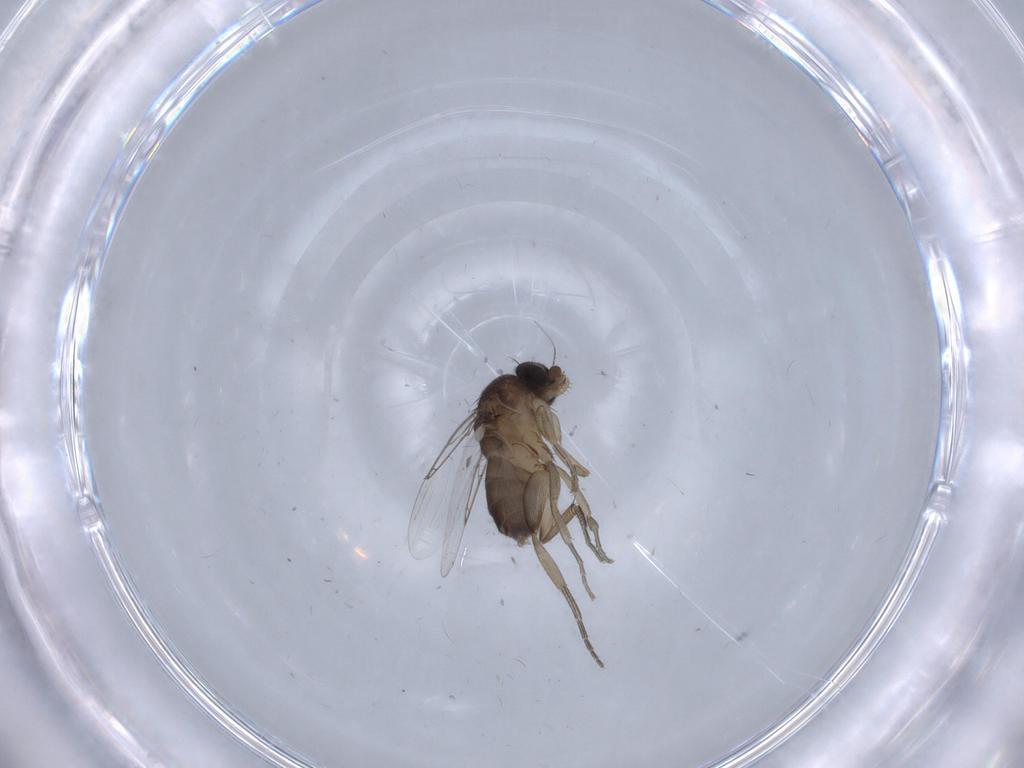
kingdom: Animalia
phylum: Arthropoda
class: Insecta
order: Diptera
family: Phoridae
